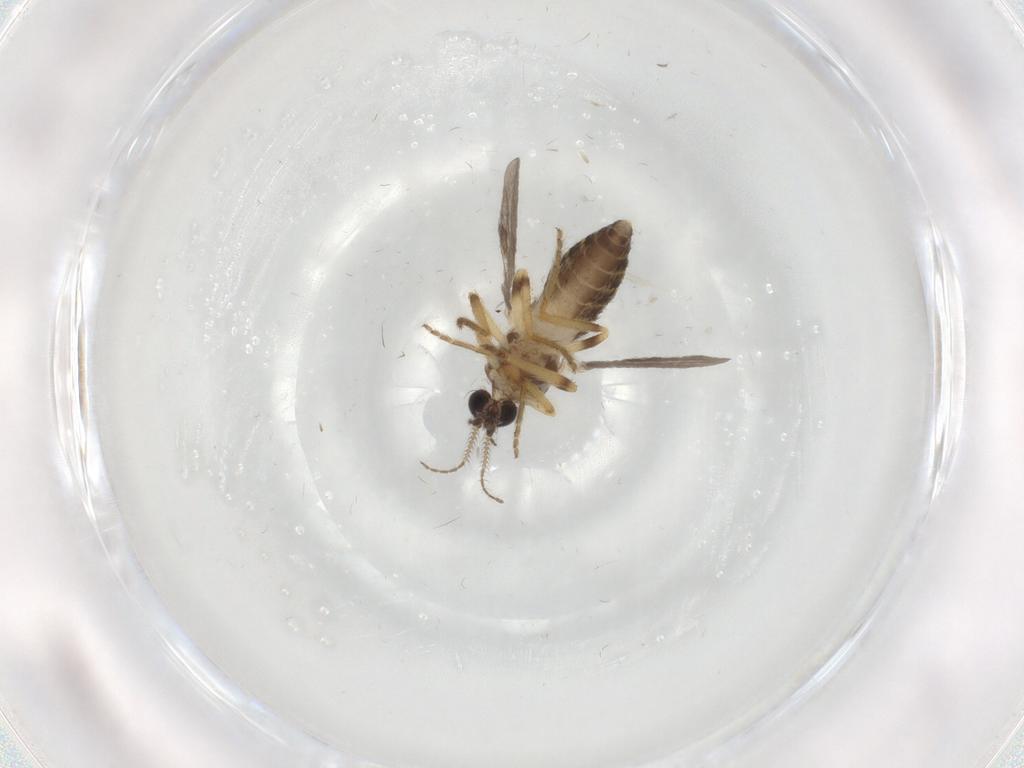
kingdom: Animalia
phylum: Arthropoda
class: Insecta
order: Diptera
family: Ceratopogonidae
